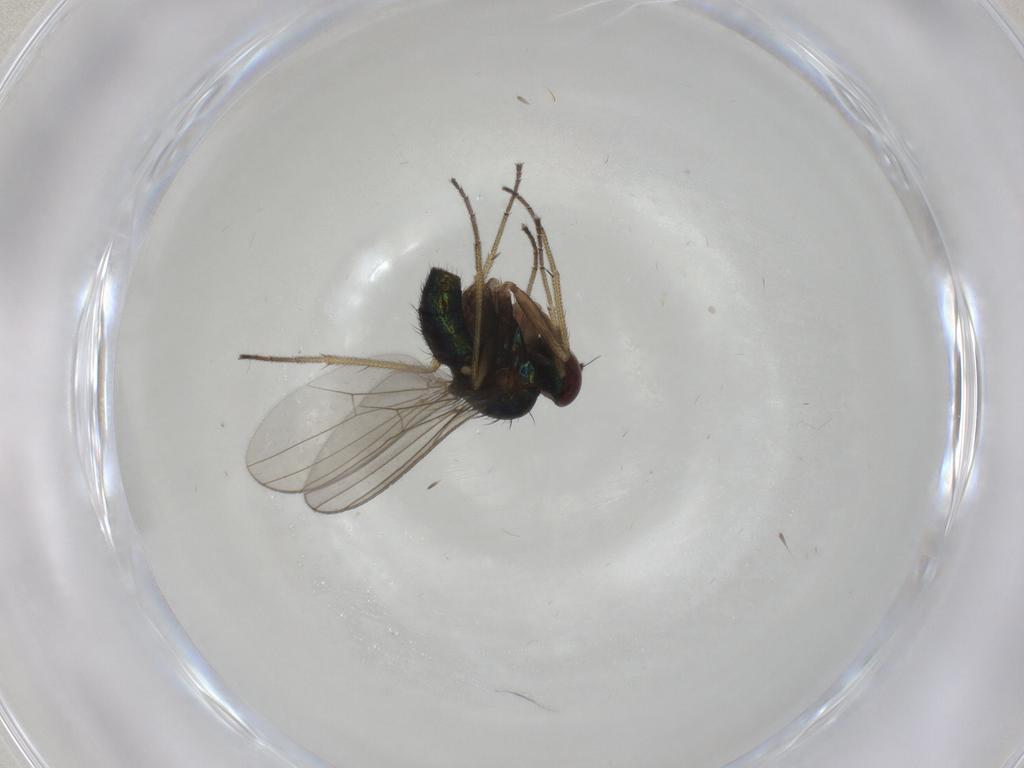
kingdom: Animalia
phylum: Arthropoda
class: Insecta
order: Diptera
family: Dolichopodidae
